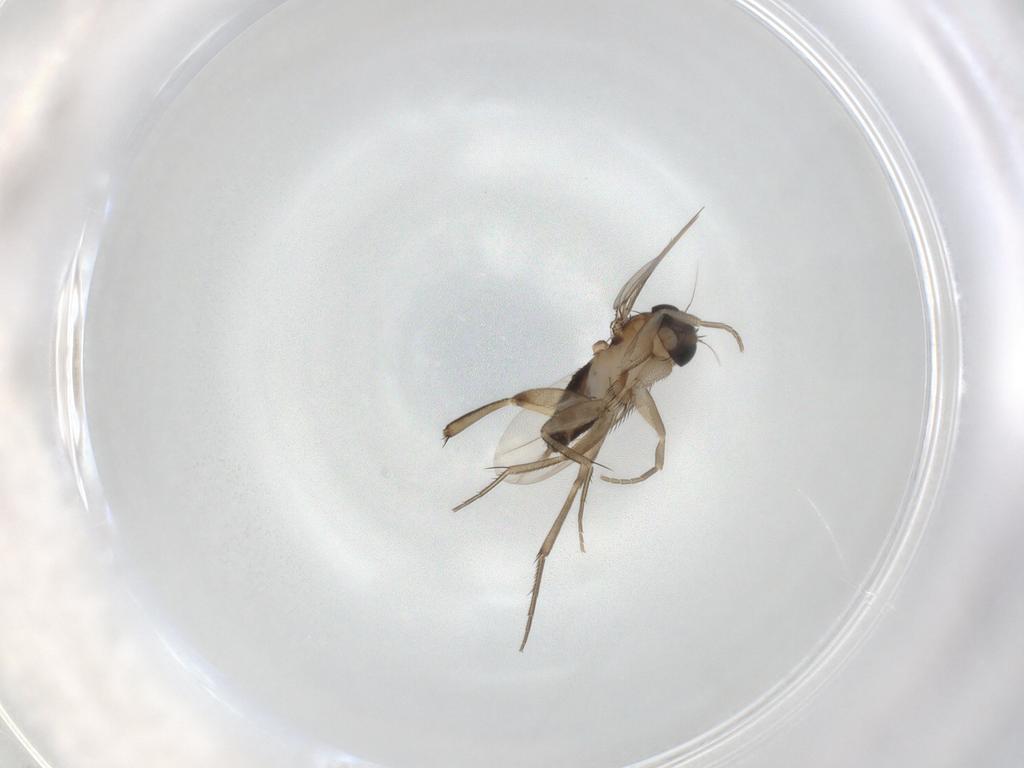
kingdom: Animalia
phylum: Arthropoda
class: Insecta
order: Diptera
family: Phoridae
